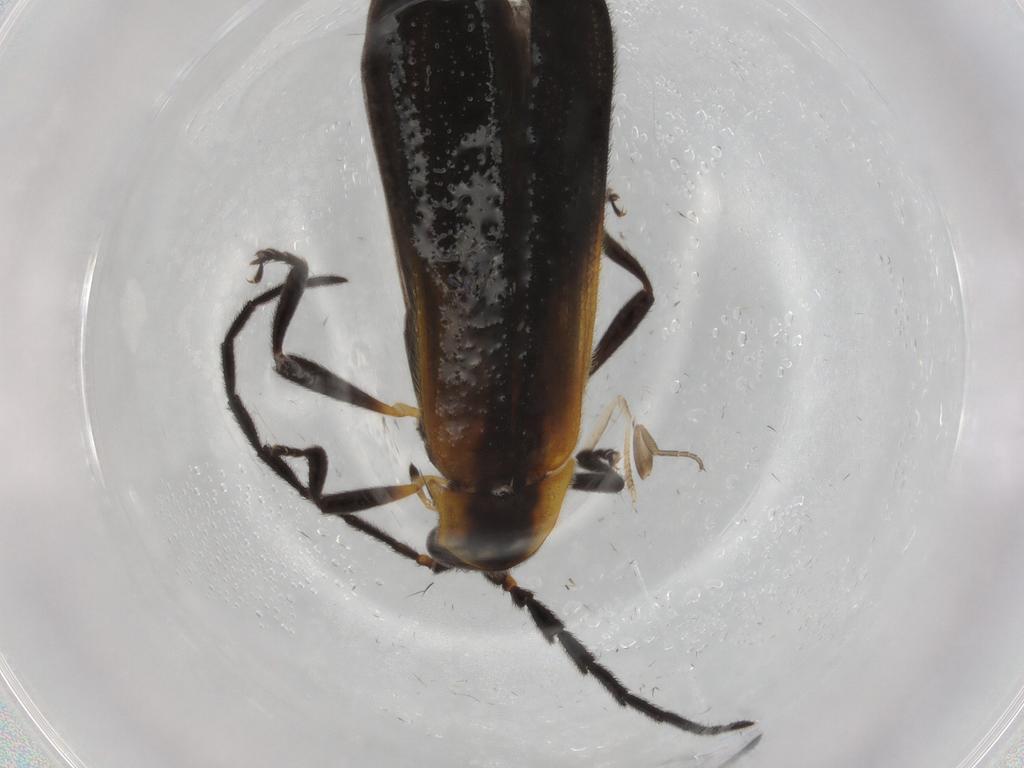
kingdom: Animalia
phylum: Arthropoda
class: Insecta
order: Coleoptera
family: Lycidae
